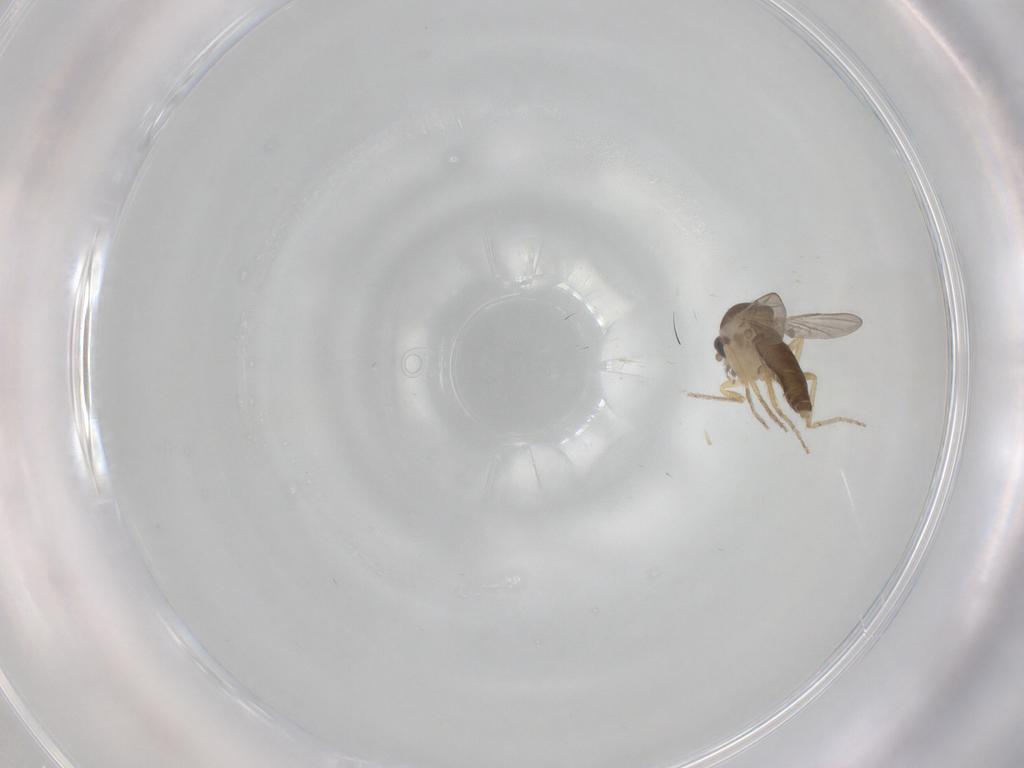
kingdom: Animalia
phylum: Arthropoda
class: Insecta
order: Diptera
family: Ceratopogonidae
